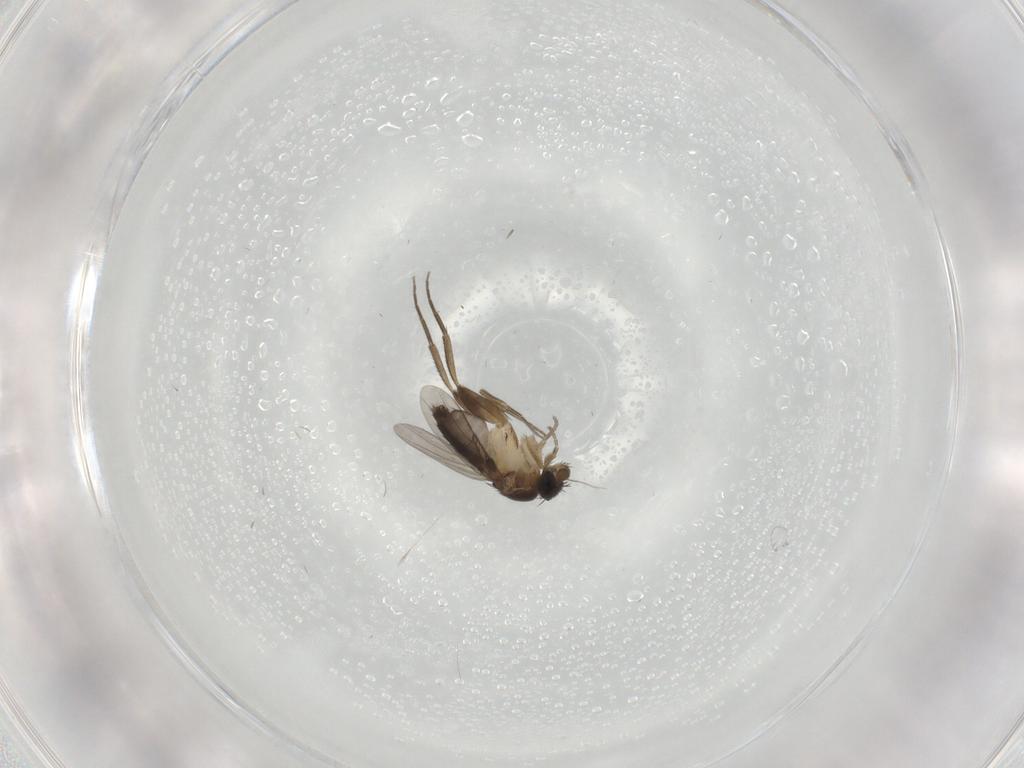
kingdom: Animalia
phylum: Arthropoda
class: Insecta
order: Diptera
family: Phoridae
